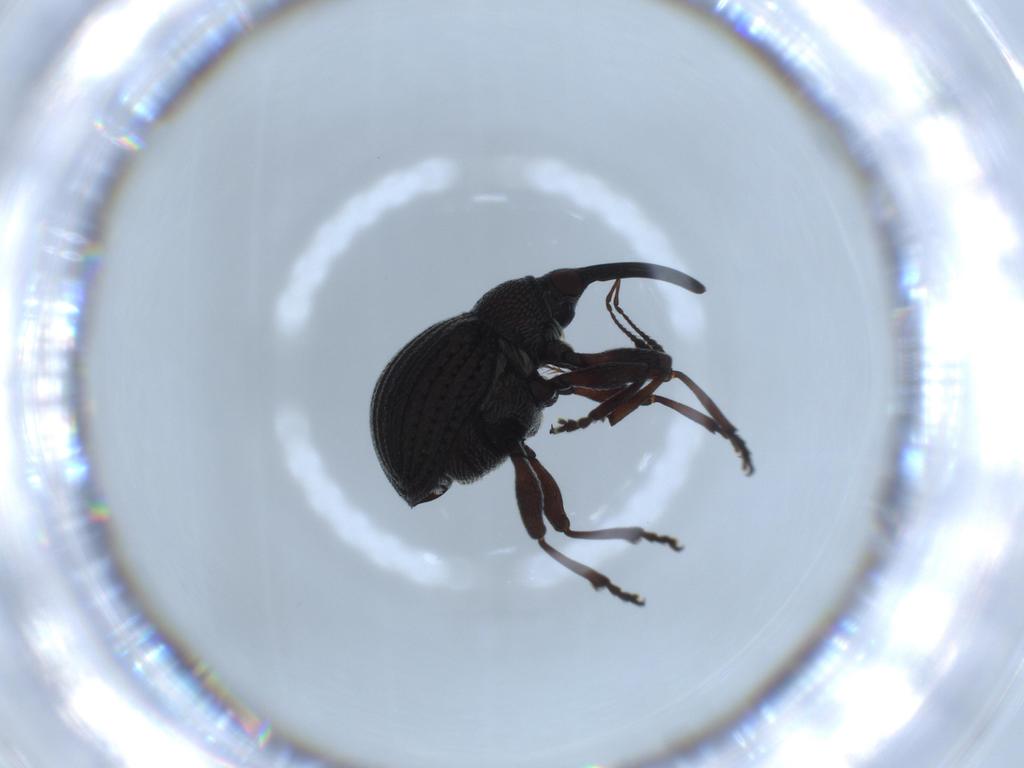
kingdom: Animalia
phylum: Arthropoda
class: Insecta
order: Coleoptera
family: Brentidae
